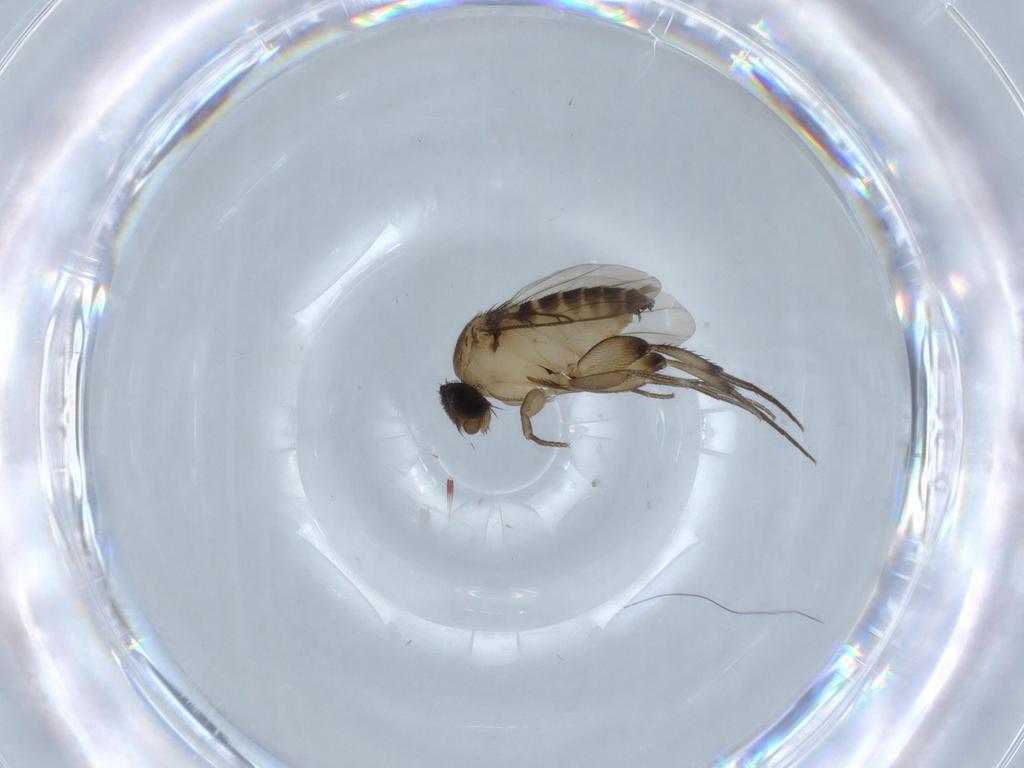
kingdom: Animalia
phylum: Arthropoda
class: Insecta
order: Diptera
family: Phoridae
